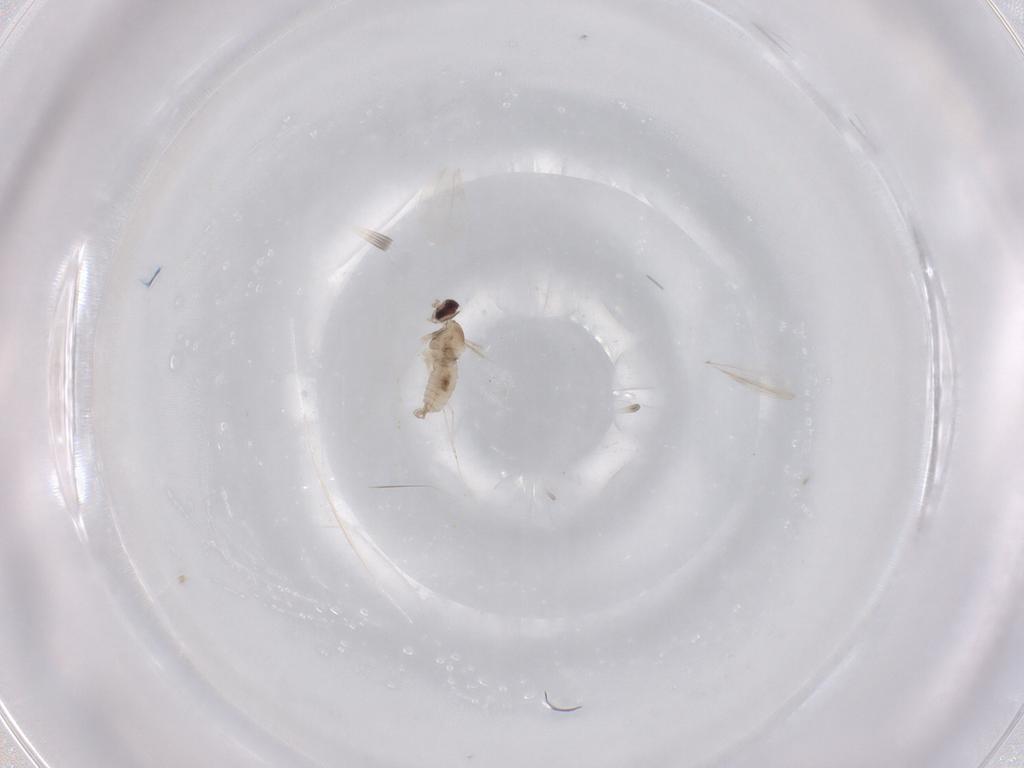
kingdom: Animalia
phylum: Arthropoda
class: Insecta
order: Diptera
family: Cecidomyiidae
